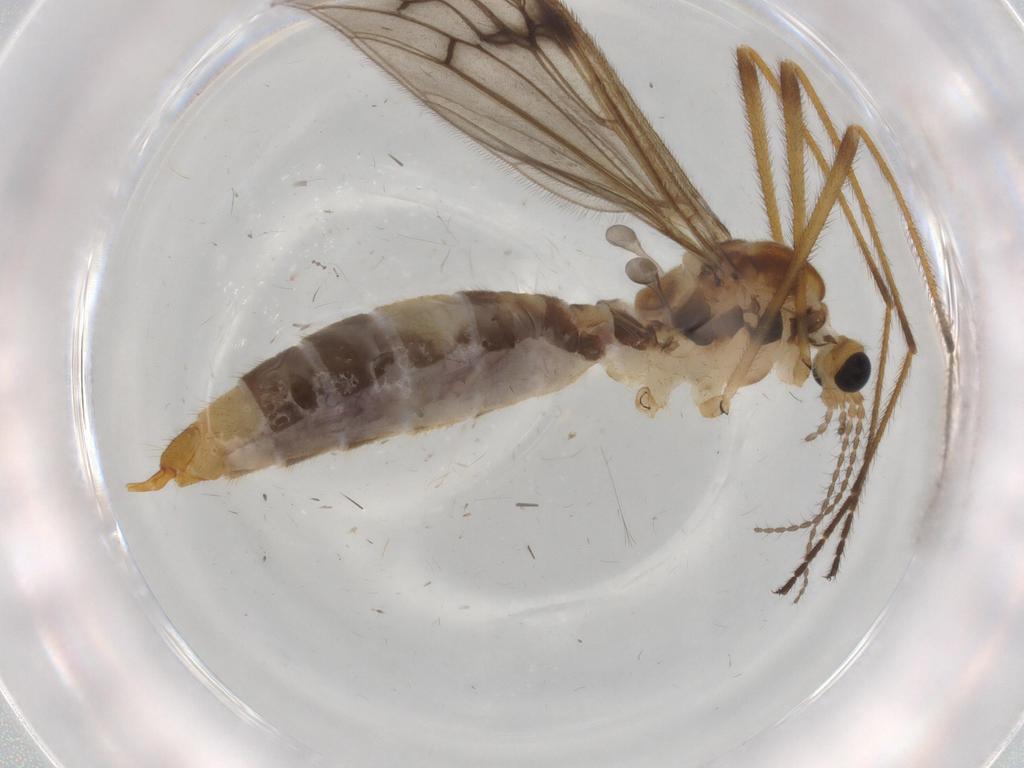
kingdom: Animalia
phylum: Arthropoda
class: Insecta
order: Diptera
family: Limoniidae
